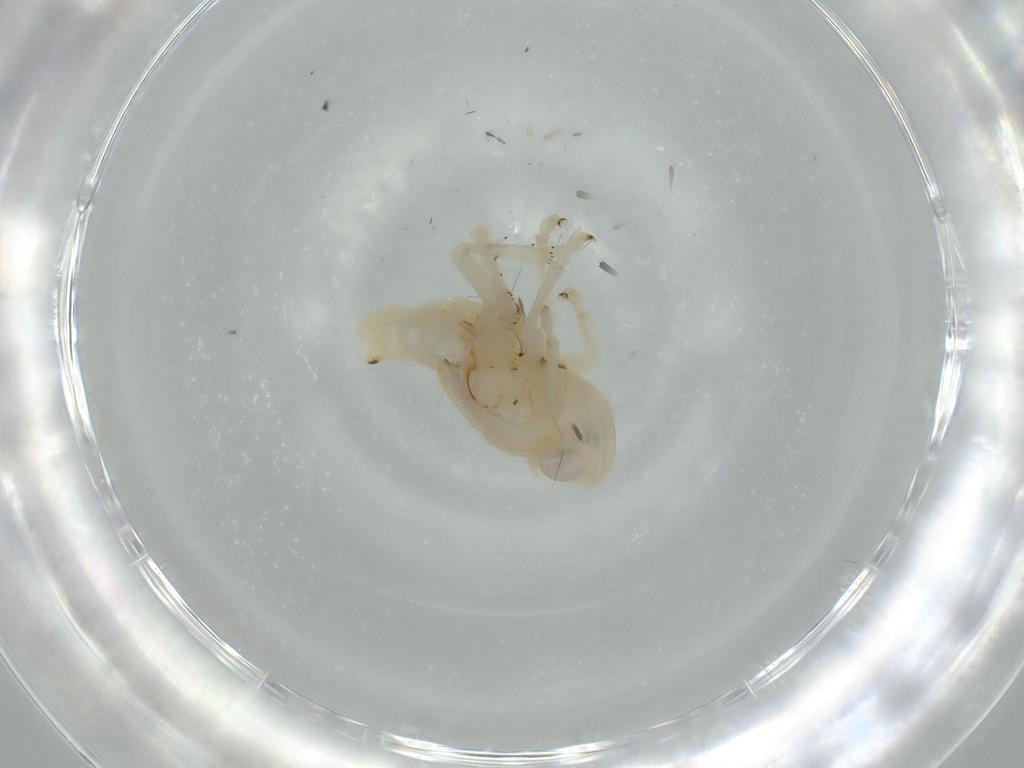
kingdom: Animalia
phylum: Arthropoda
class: Insecta
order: Hemiptera
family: Nogodinidae
